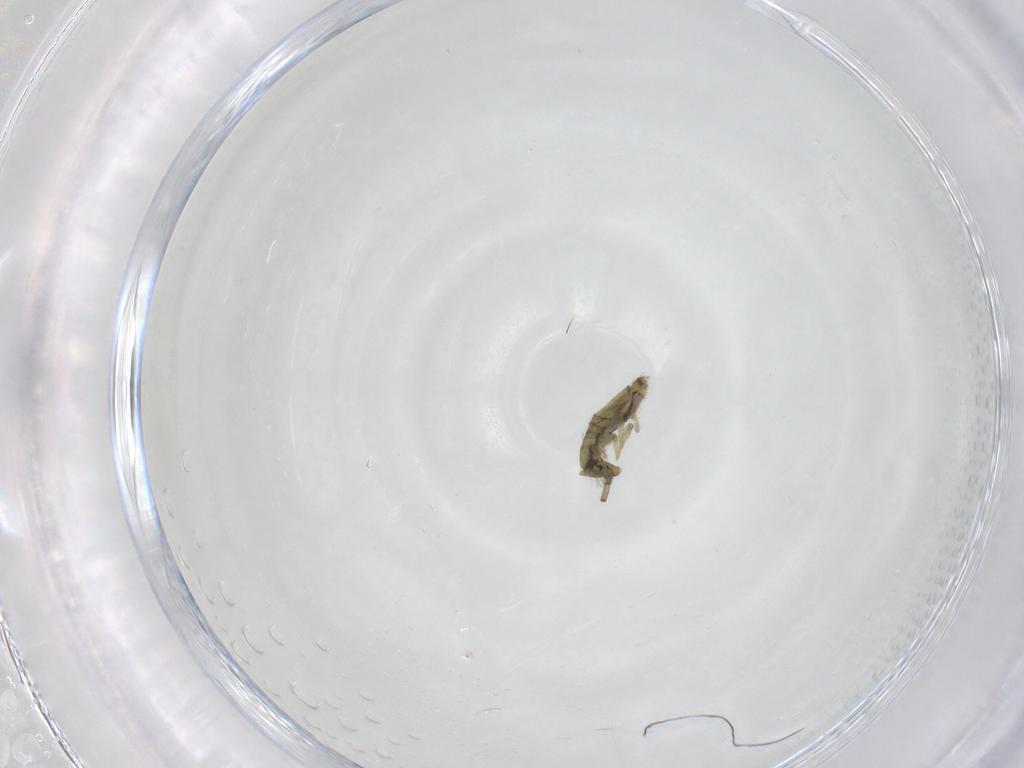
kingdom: Animalia
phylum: Arthropoda
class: Collembola
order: Entomobryomorpha
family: Entomobryidae
